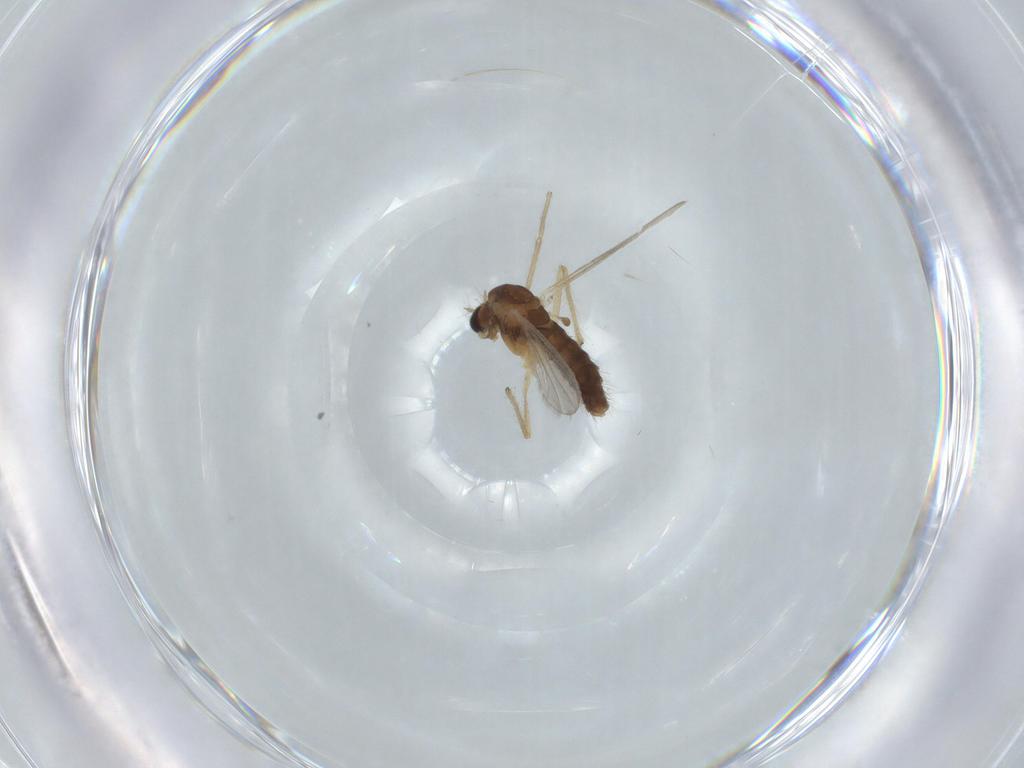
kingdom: Animalia
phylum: Arthropoda
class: Insecta
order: Diptera
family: Chironomidae
